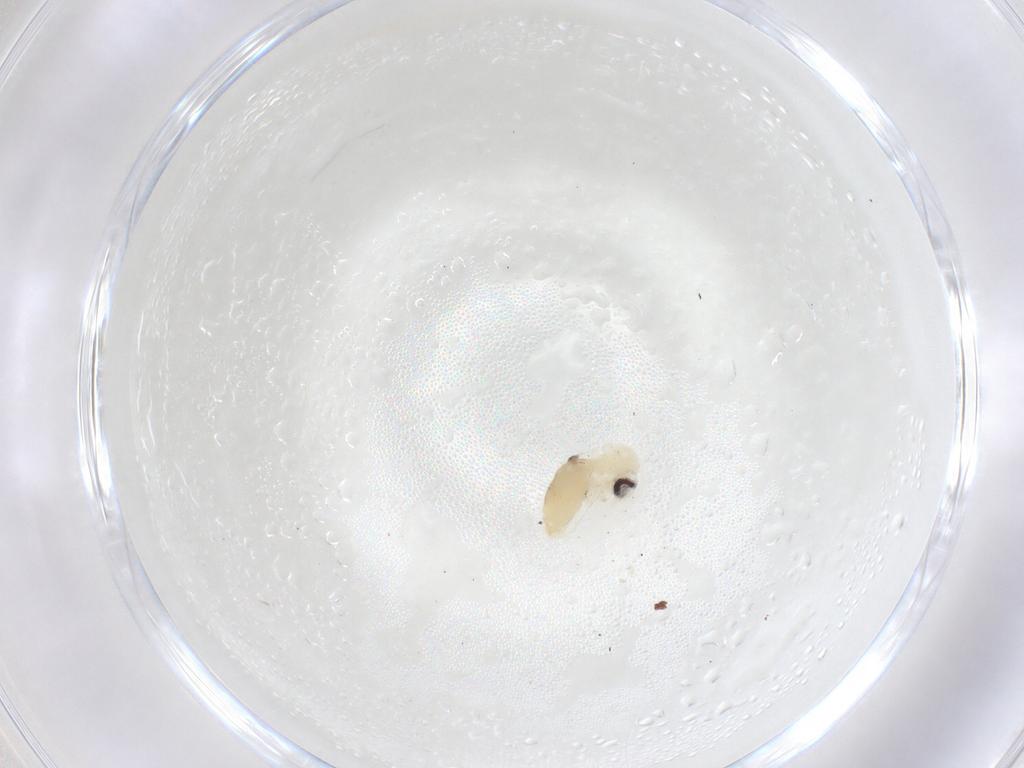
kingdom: Animalia
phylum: Arthropoda
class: Insecta
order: Diptera
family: Psychodidae
